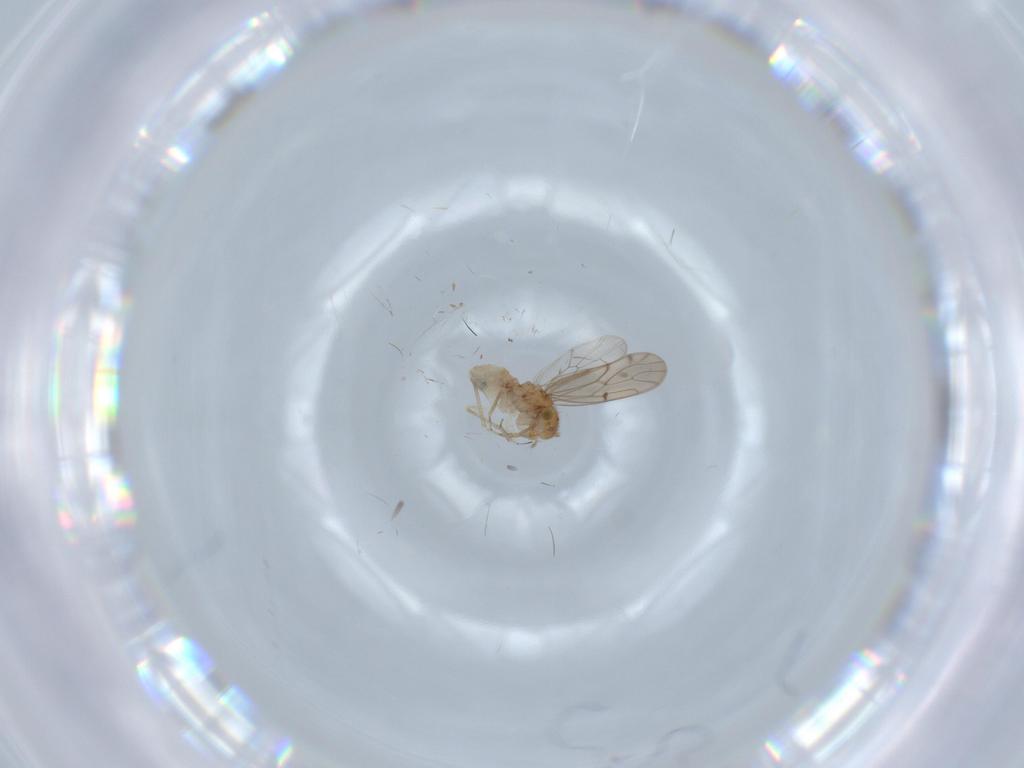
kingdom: Animalia
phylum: Arthropoda
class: Insecta
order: Psocodea
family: Ectopsocidae
